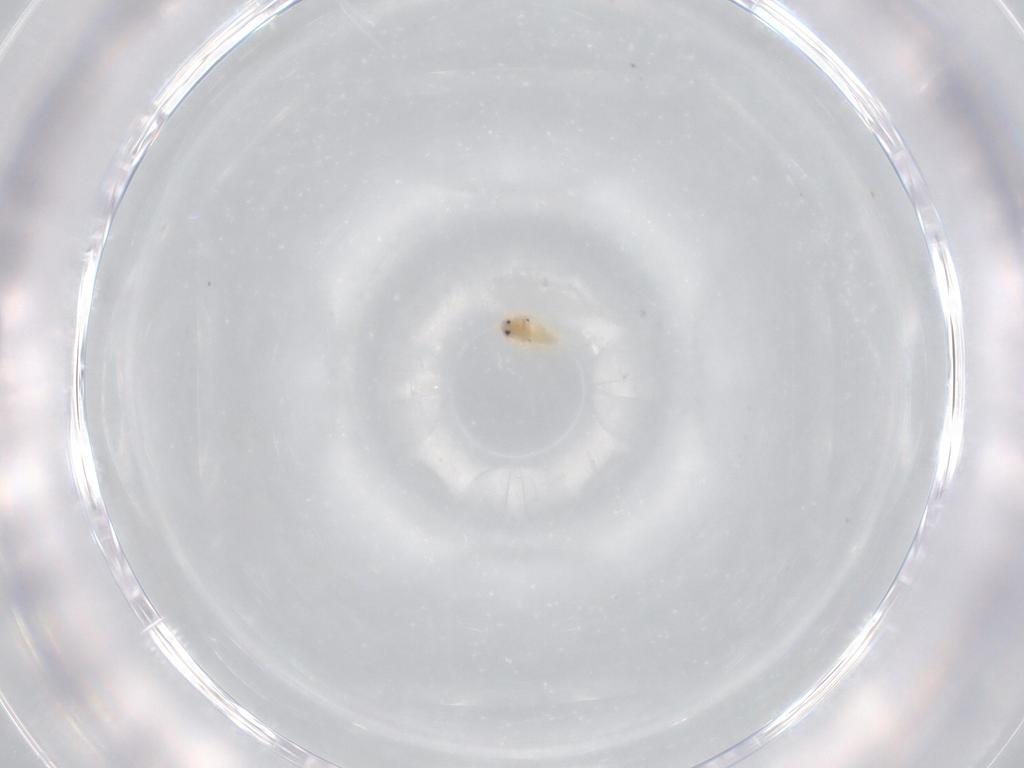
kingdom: Animalia
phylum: Arthropoda
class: Insecta
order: Hemiptera
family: Aleyrodidae
